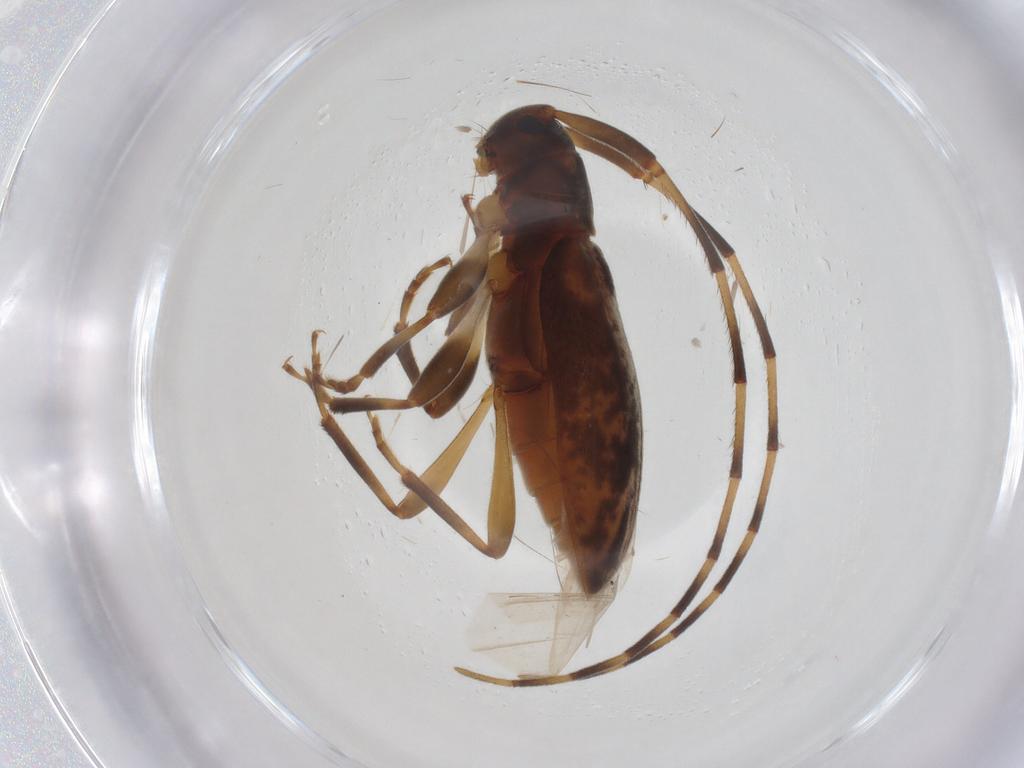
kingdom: Animalia
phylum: Arthropoda
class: Insecta
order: Coleoptera
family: Cerambycidae
